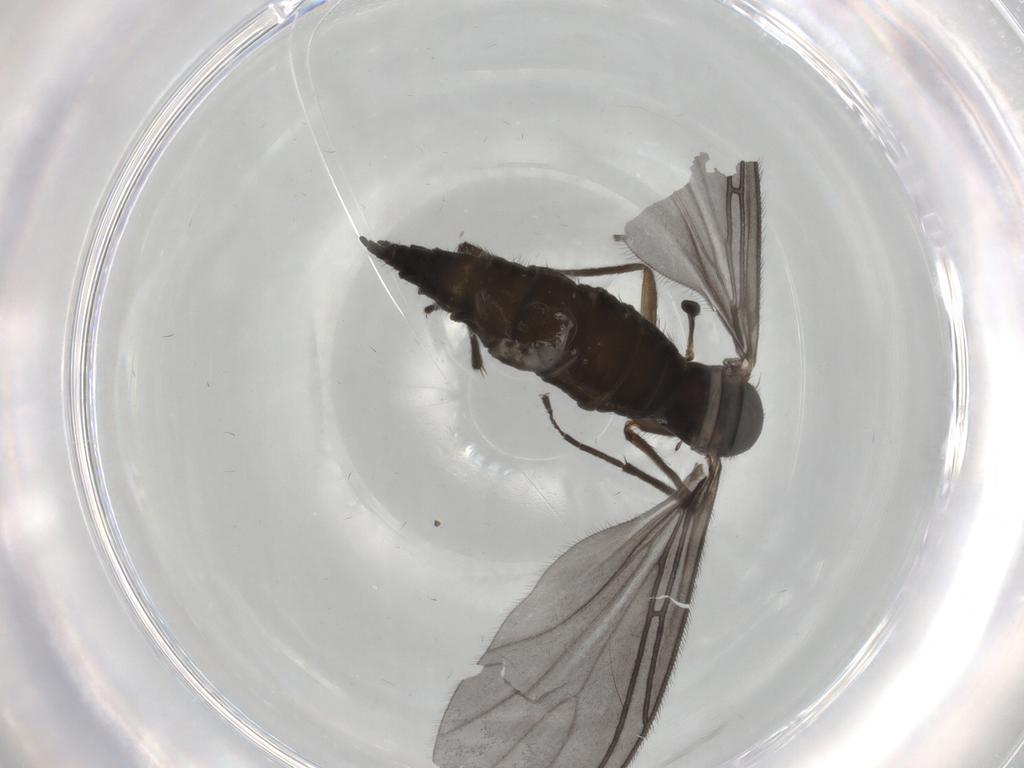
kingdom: Animalia
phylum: Arthropoda
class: Insecta
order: Diptera
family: Sciaridae
